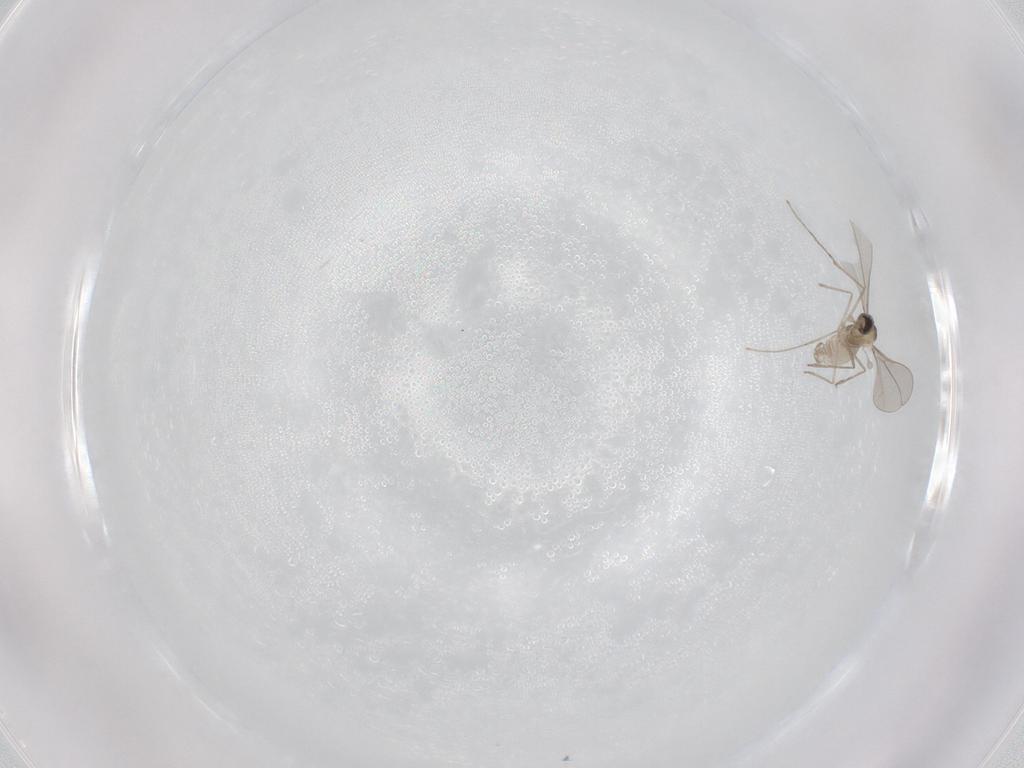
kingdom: Animalia
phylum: Arthropoda
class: Insecta
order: Diptera
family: Cecidomyiidae
